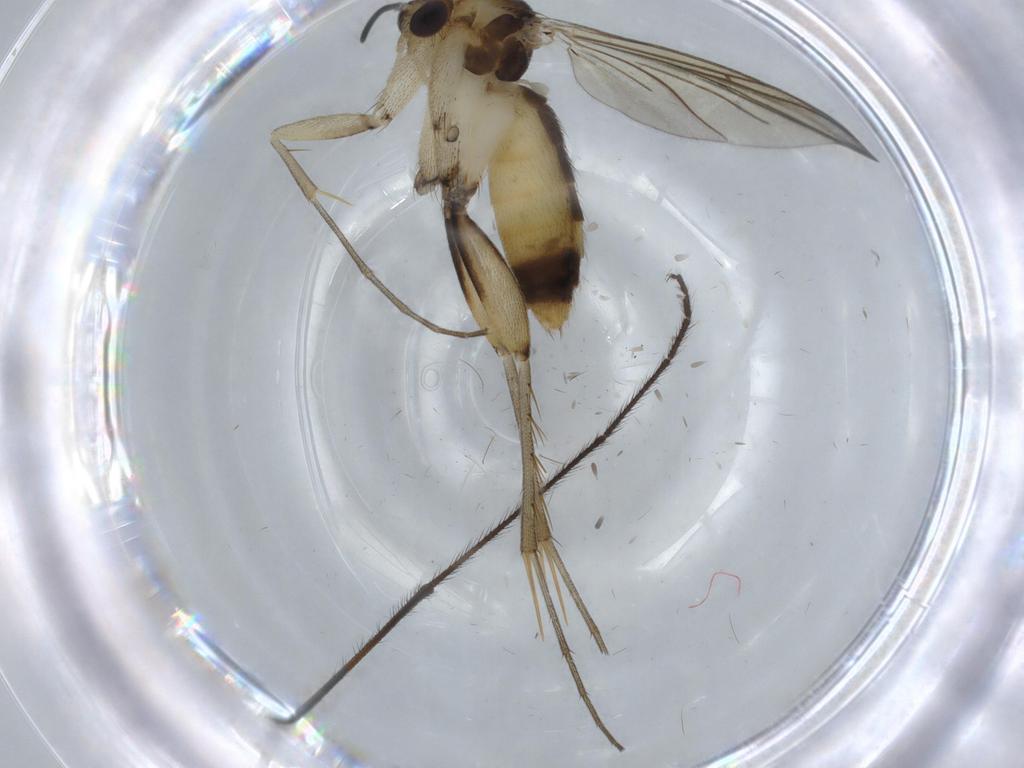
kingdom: Animalia
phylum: Arthropoda
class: Insecta
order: Diptera
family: Mycetophilidae
